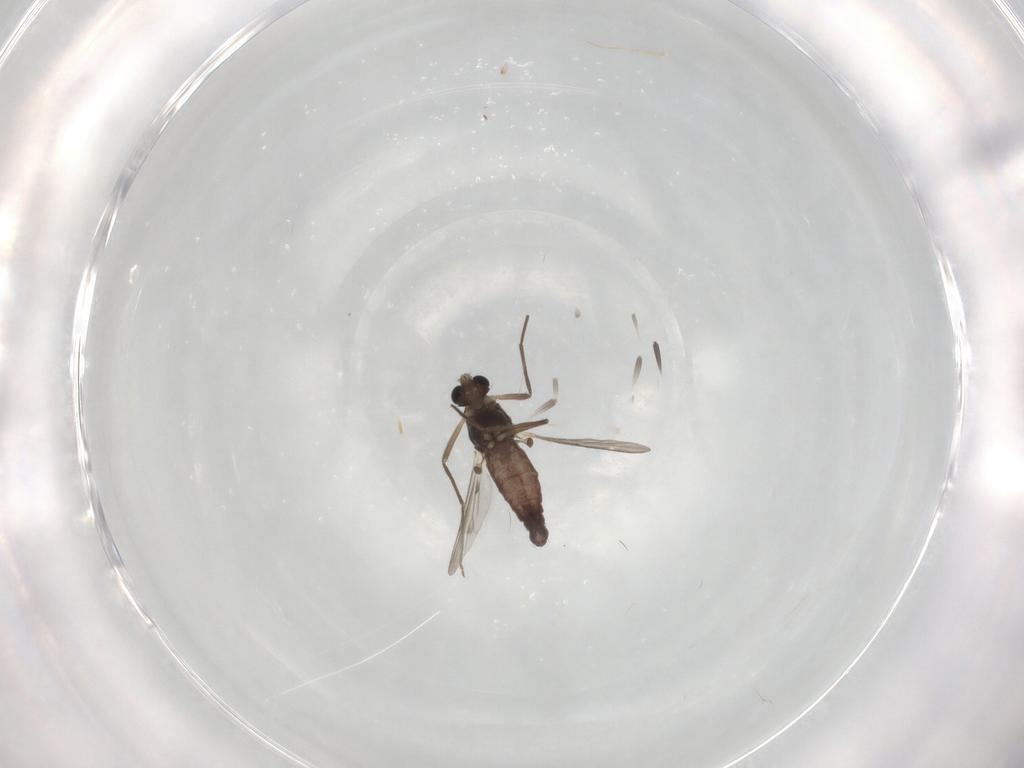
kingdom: Animalia
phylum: Arthropoda
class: Insecta
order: Diptera
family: Chironomidae
